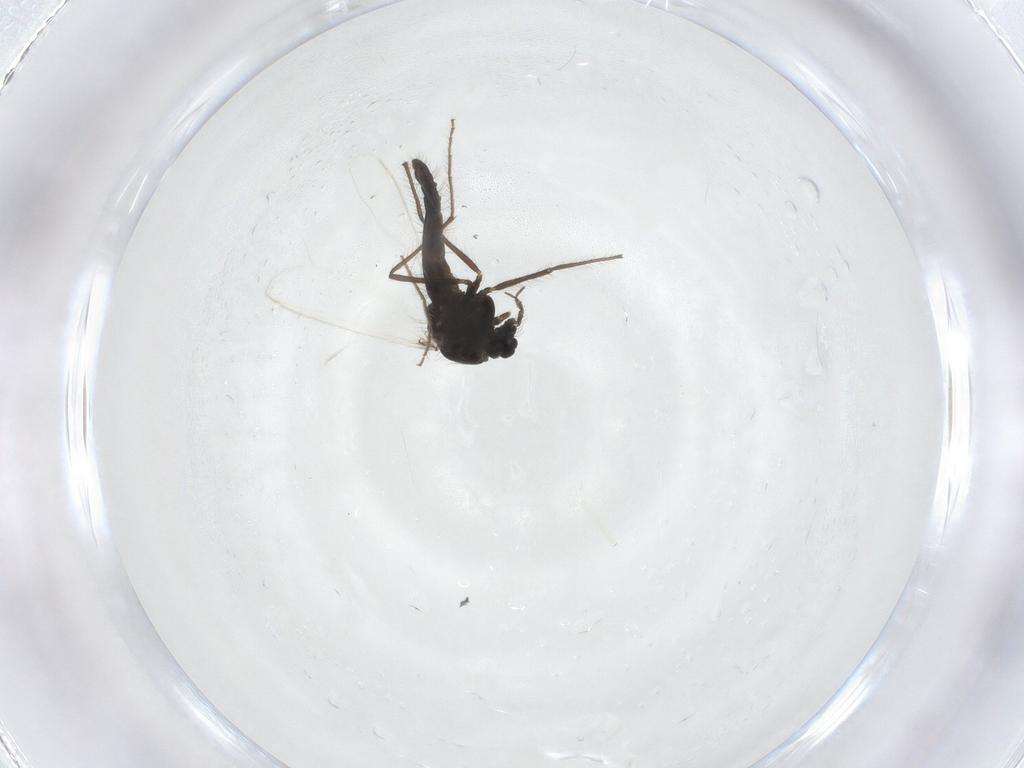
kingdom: Animalia
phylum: Arthropoda
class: Insecta
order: Diptera
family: Chironomidae
